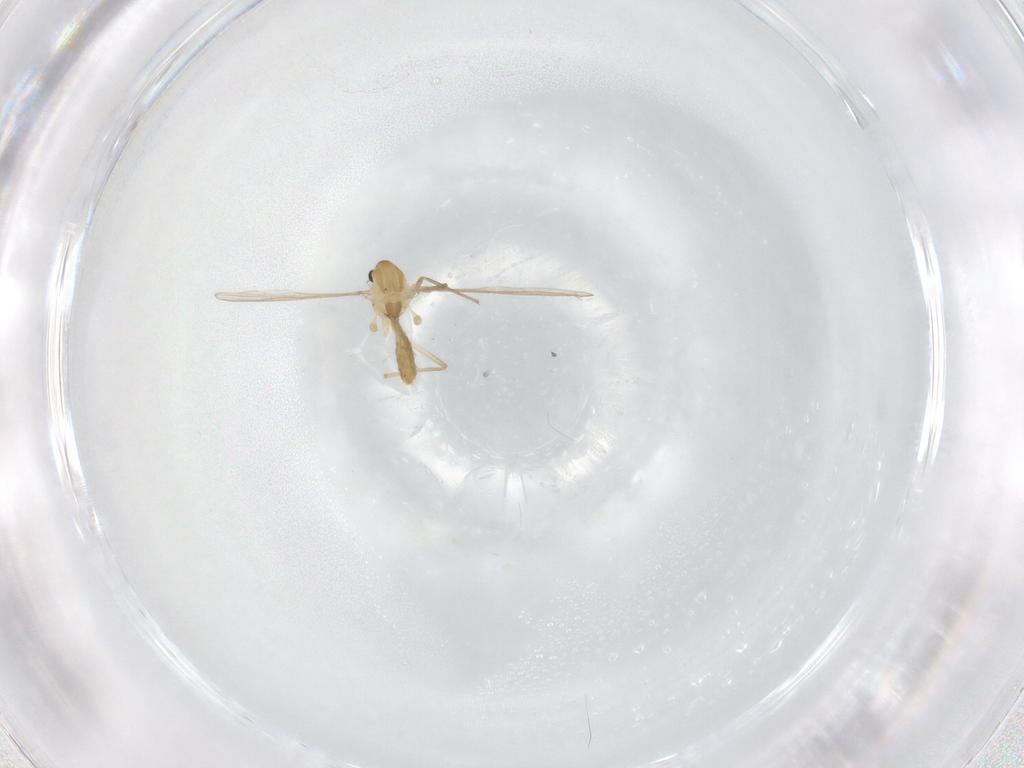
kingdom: Animalia
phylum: Arthropoda
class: Insecta
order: Diptera
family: Chironomidae
